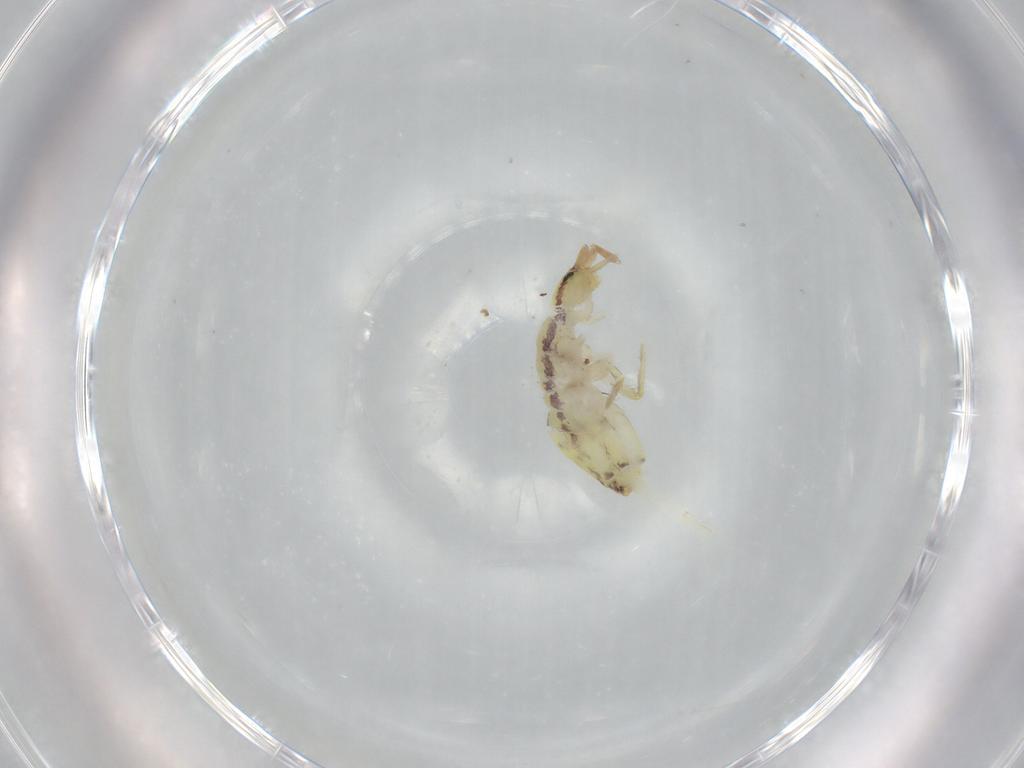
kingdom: Animalia
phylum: Arthropoda
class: Collembola
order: Entomobryomorpha
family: Entomobryidae
